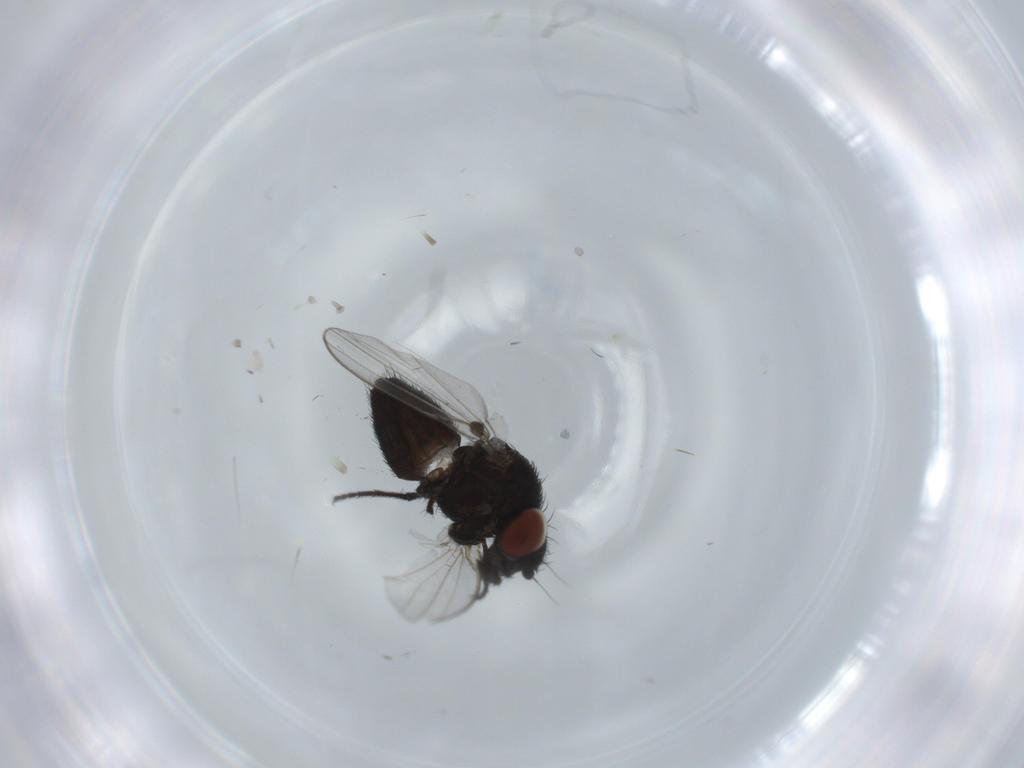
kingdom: Animalia
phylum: Arthropoda
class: Insecta
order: Diptera
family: Milichiidae
